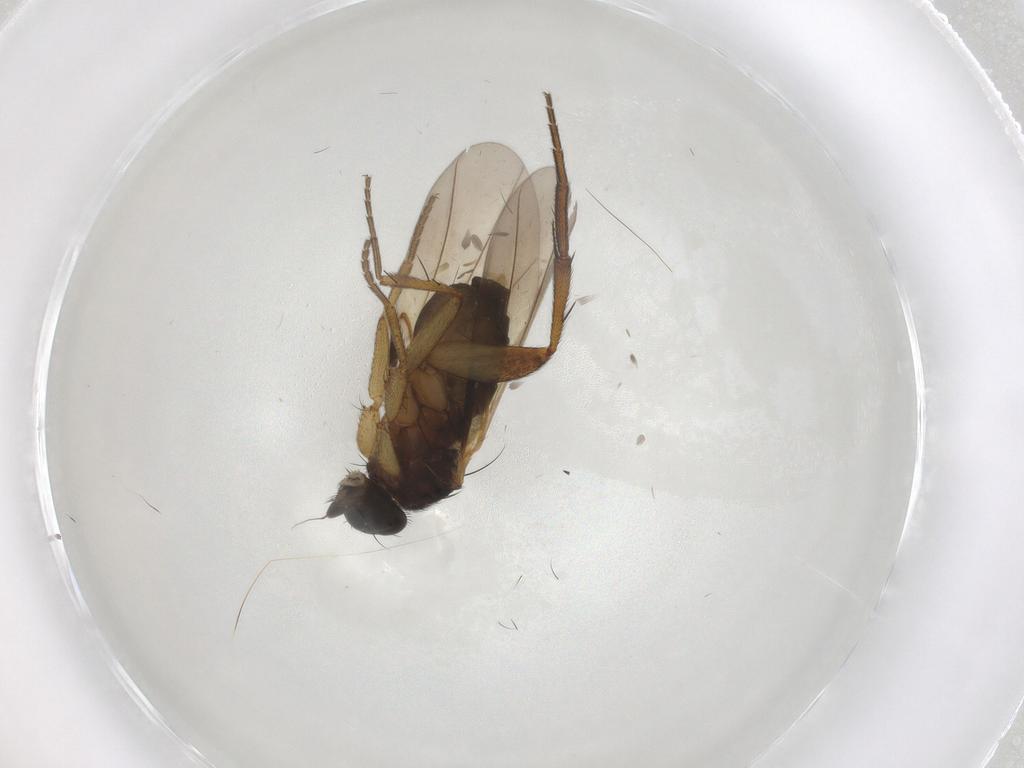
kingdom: Animalia
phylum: Arthropoda
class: Insecta
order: Diptera
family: Phoridae
